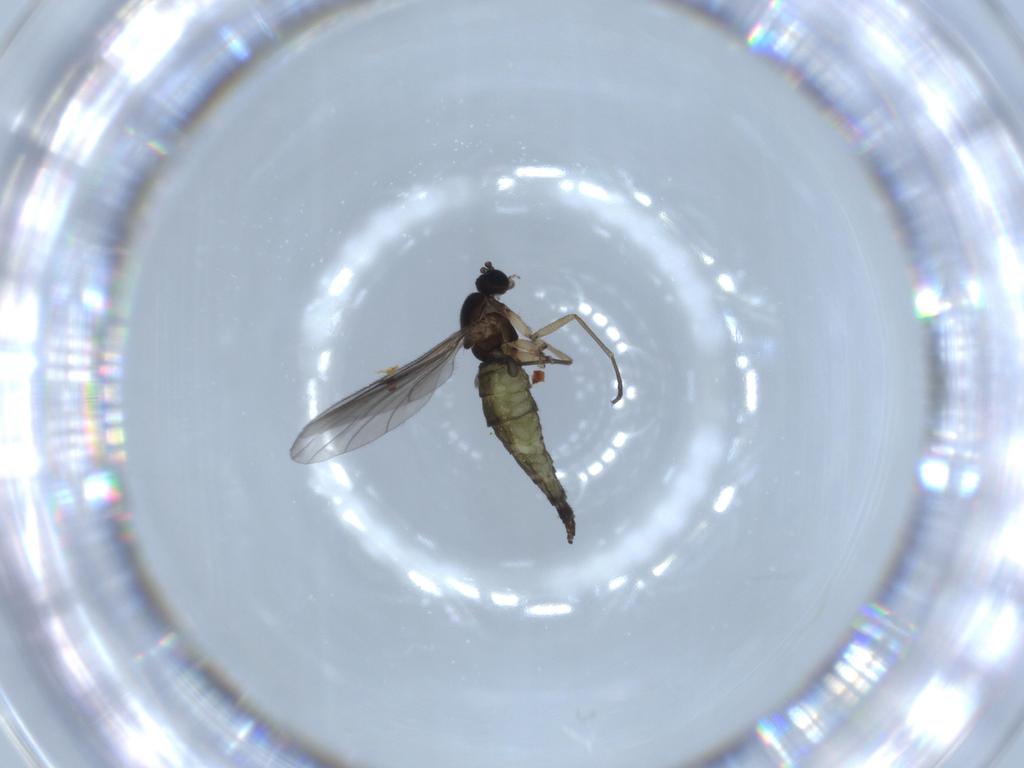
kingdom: Animalia
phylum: Arthropoda
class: Insecta
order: Diptera
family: Sciaridae
